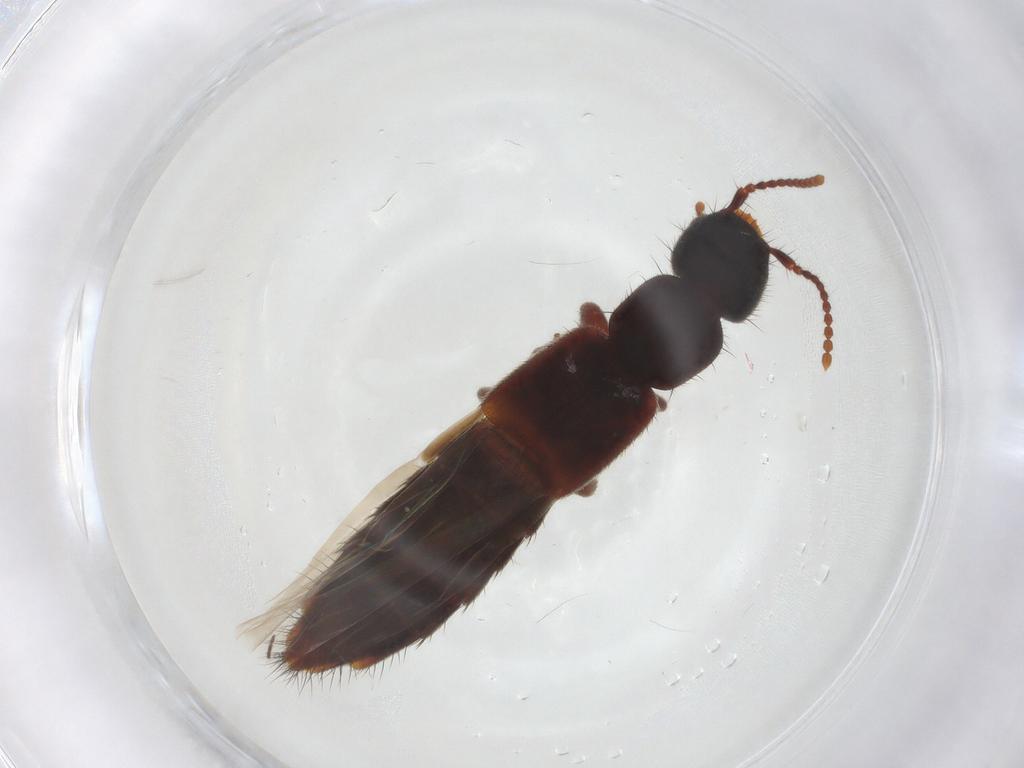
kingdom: Animalia
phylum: Arthropoda
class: Insecta
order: Coleoptera
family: Staphylinidae
